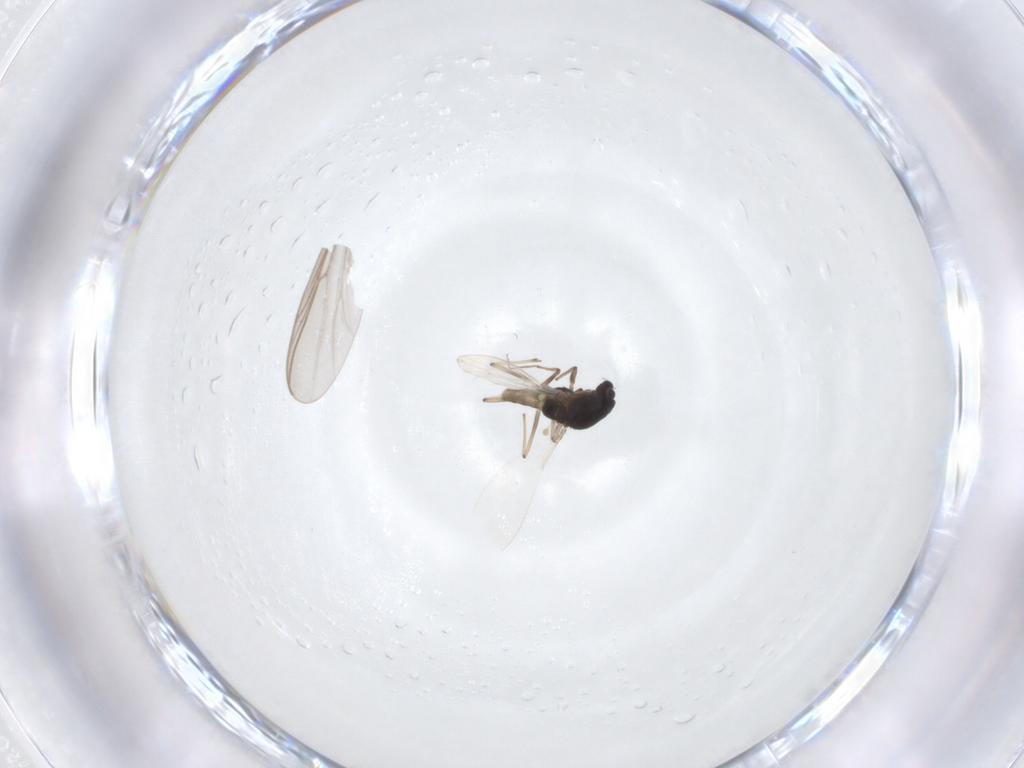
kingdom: Animalia
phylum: Arthropoda
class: Insecta
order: Diptera
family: Chironomidae
